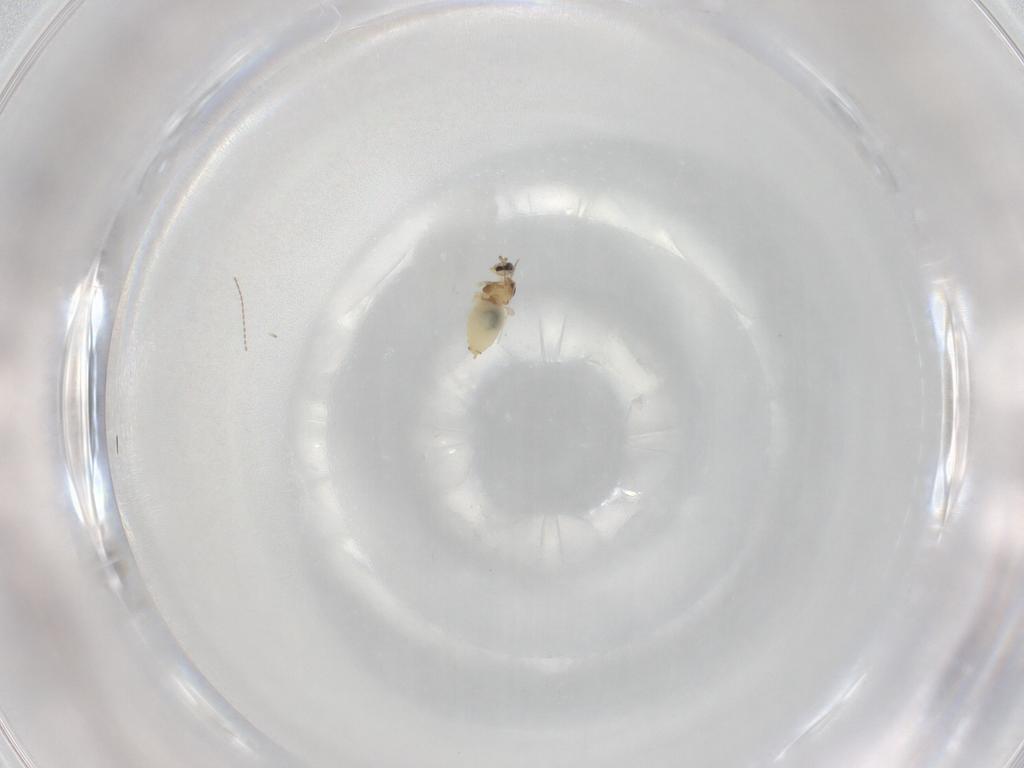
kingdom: Animalia
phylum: Arthropoda
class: Insecta
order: Diptera
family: Cecidomyiidae
